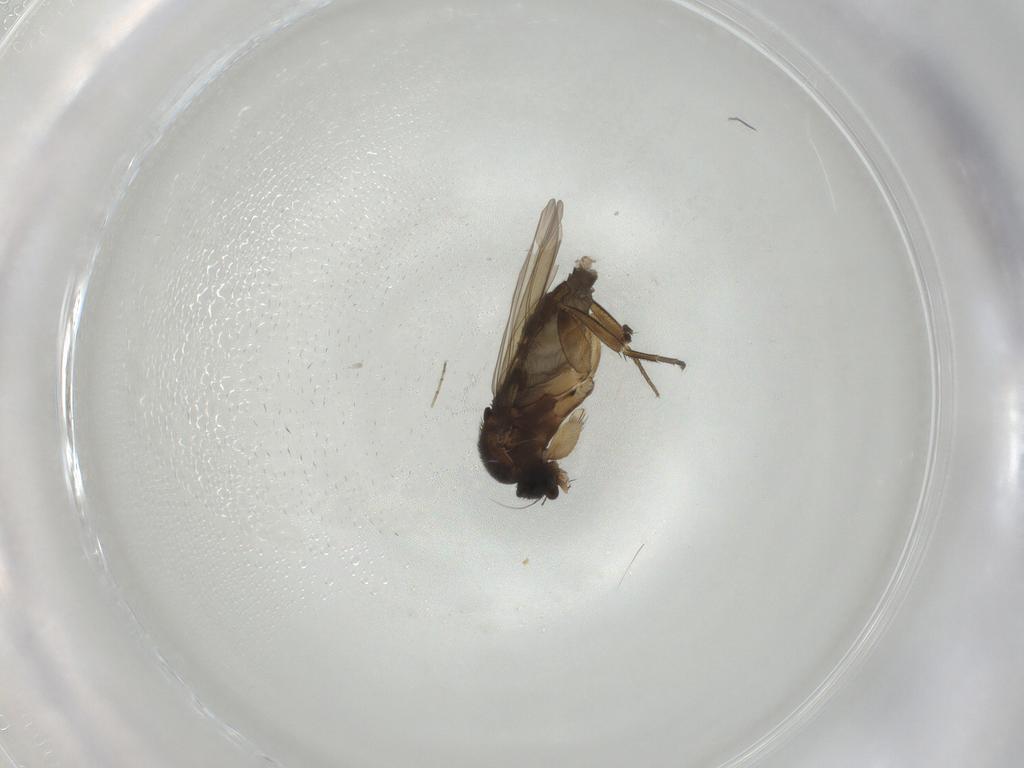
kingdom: Animalia
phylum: Arthropoda
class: Insecta
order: Diptera
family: Phoridae
